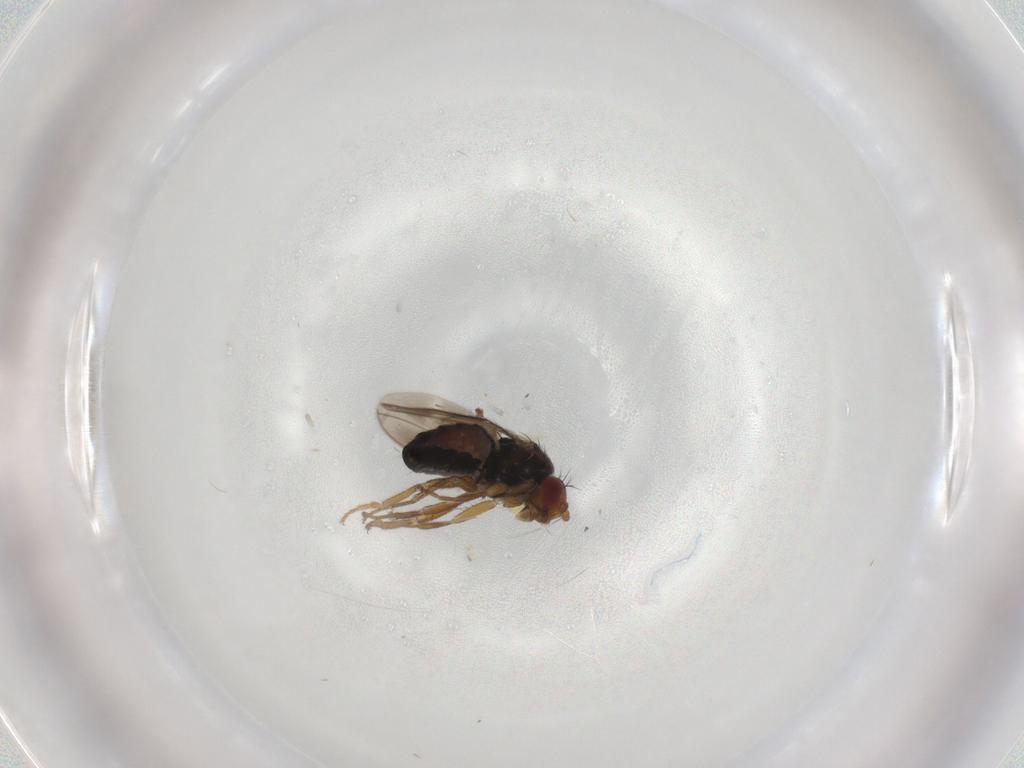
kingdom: Animalia
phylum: Arthropoda
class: Insecta
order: Diptera
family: Sphaeroceridae
